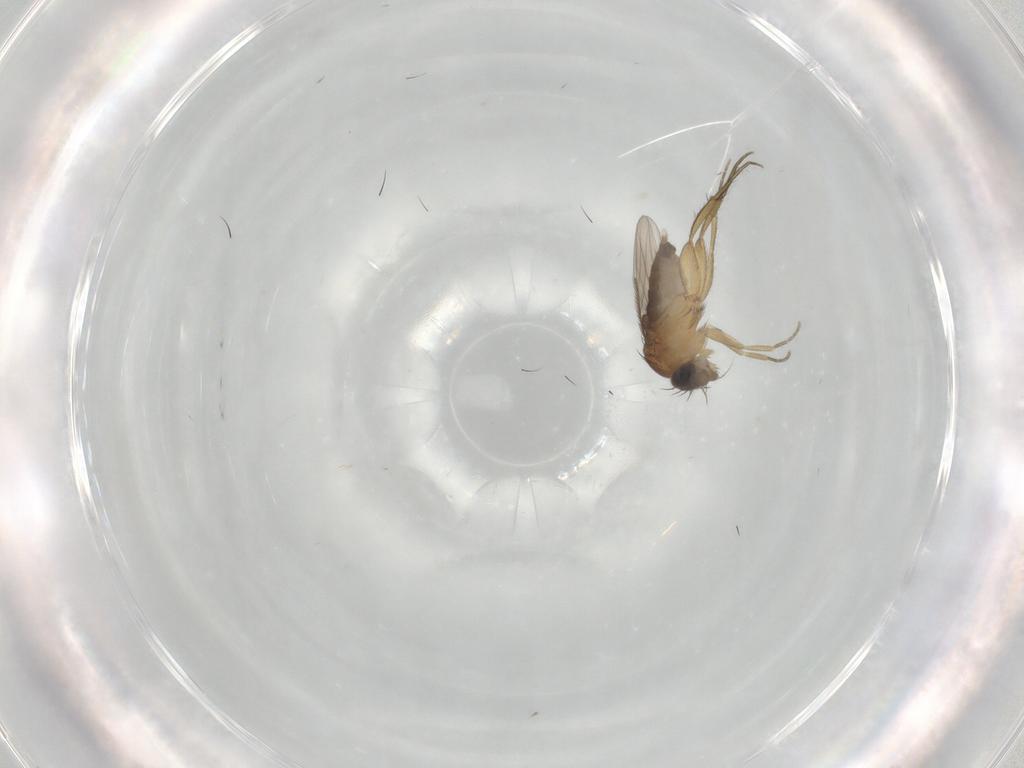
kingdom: Animalia
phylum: Arthropoda
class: Insecta
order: Diptera
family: Phoridae
